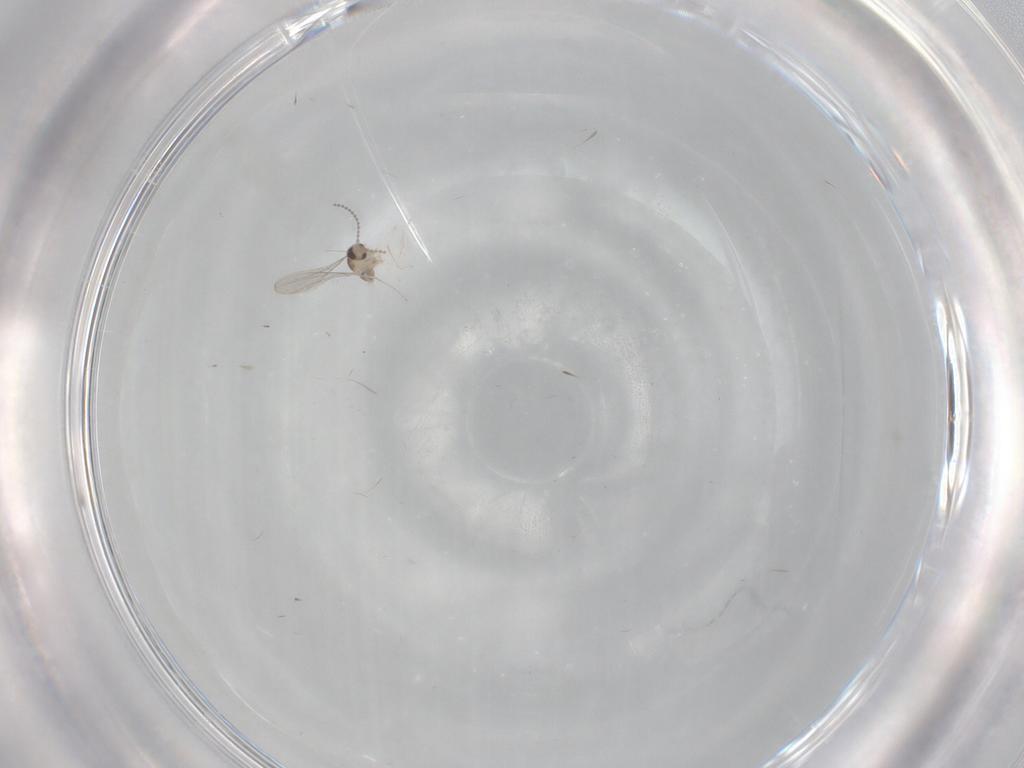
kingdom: Animalia
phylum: Arthropoda
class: Insecta
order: Diptera
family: Cecidomyiidae
